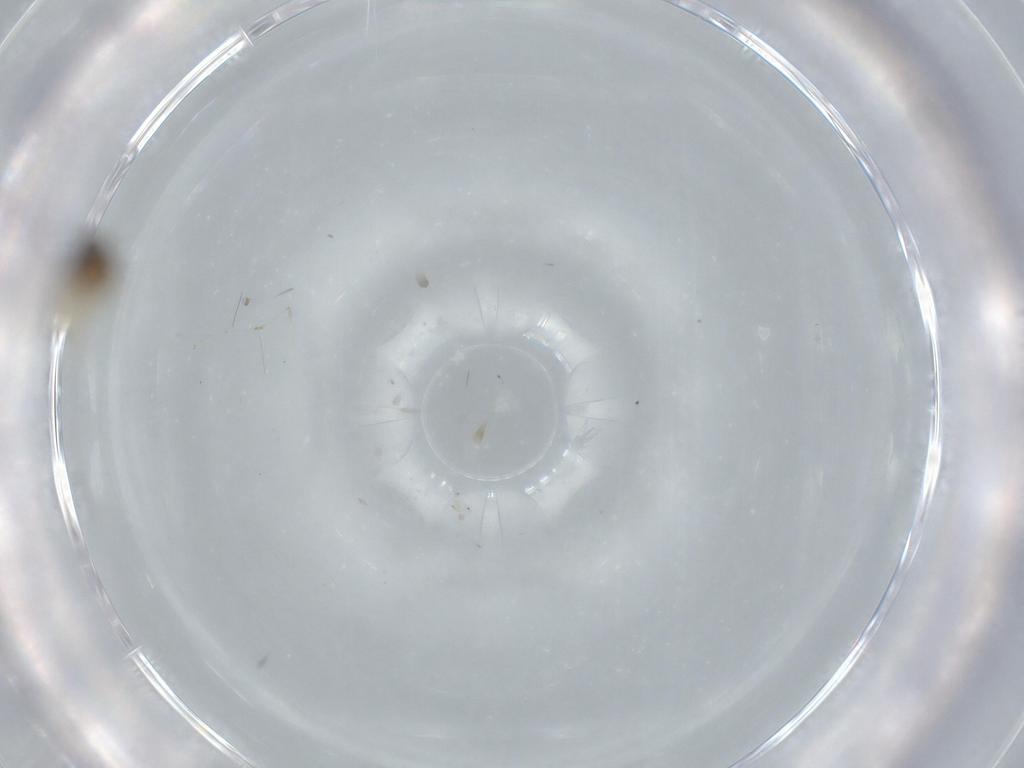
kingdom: Animalia
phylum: Arthropoda
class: Insecta
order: Diptera
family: Ceratopogonidae
